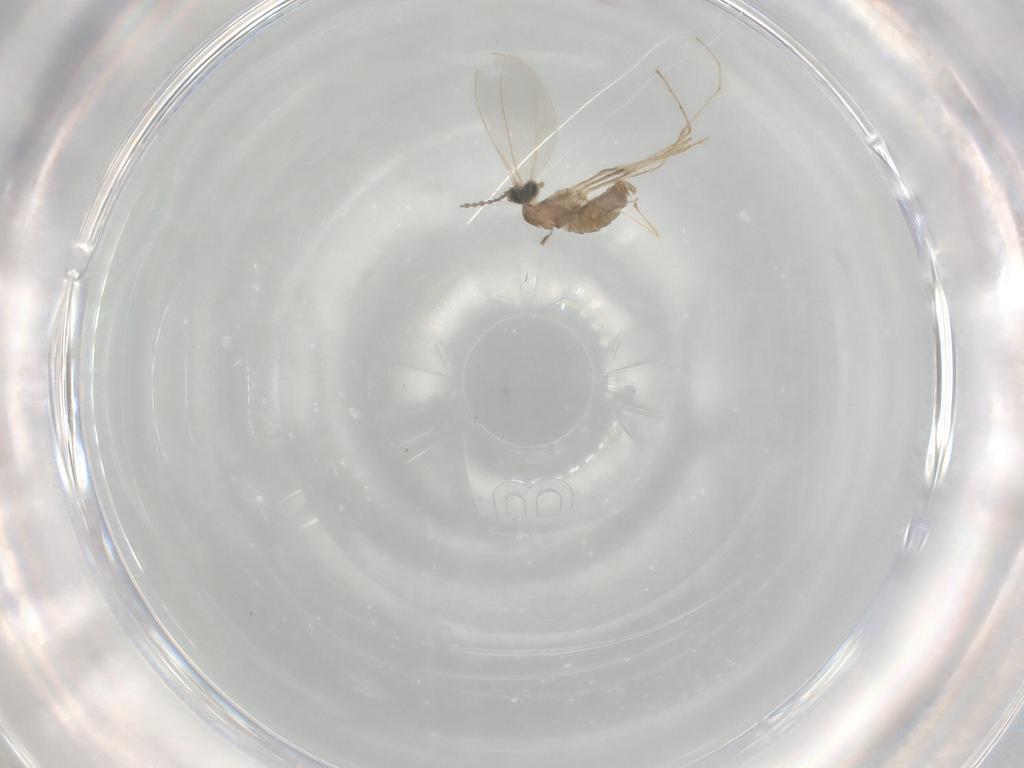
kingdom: Animalia
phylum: Arthropoda
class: Insecta
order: Diptera
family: Cecidomyiidae
